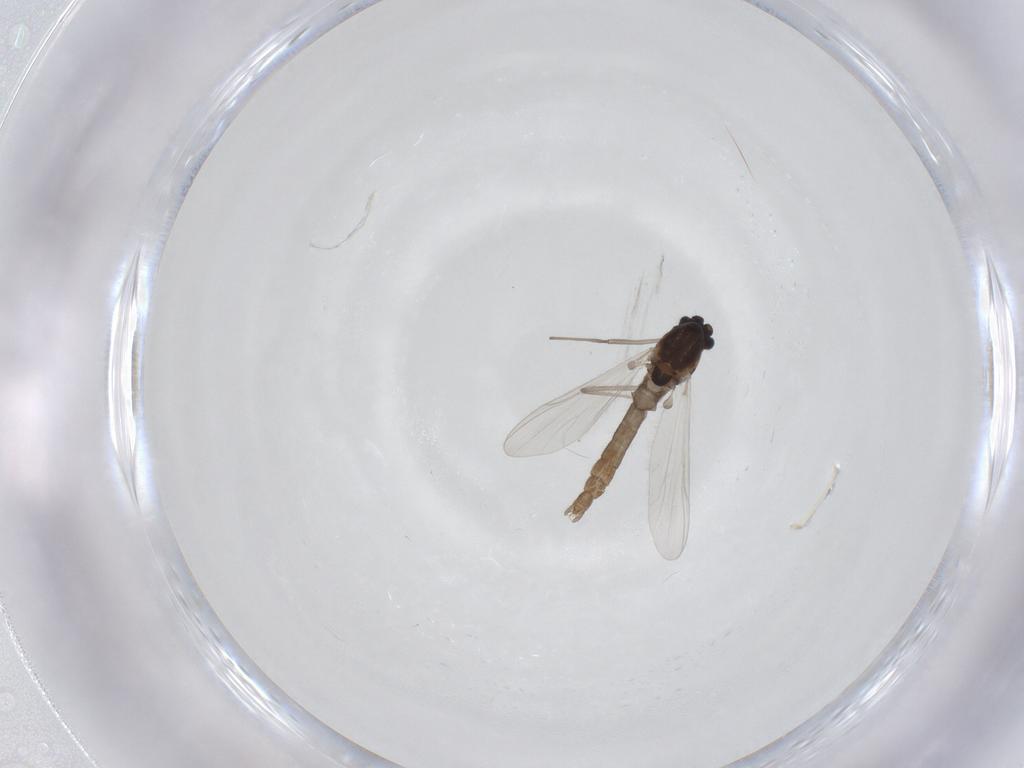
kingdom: Animalia
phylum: Arthropoda
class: Insecta
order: Diptera
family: Chironomidae
